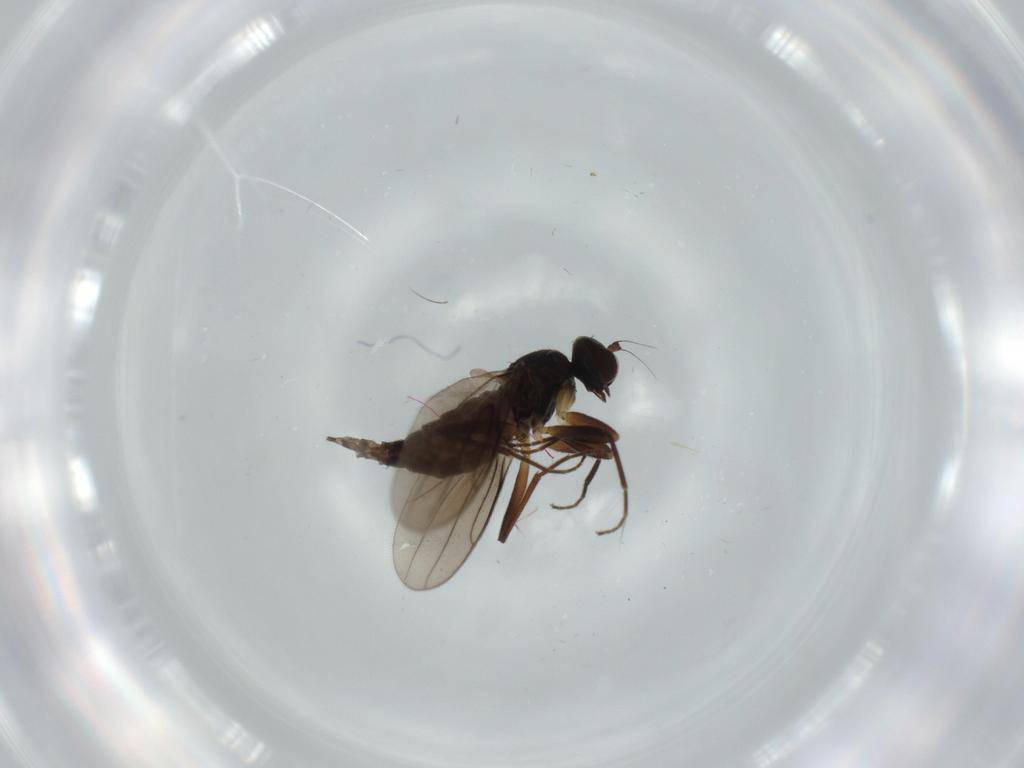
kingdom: Animalia
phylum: Arthropoda
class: Insecta
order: Diptera
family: Hybotidae
